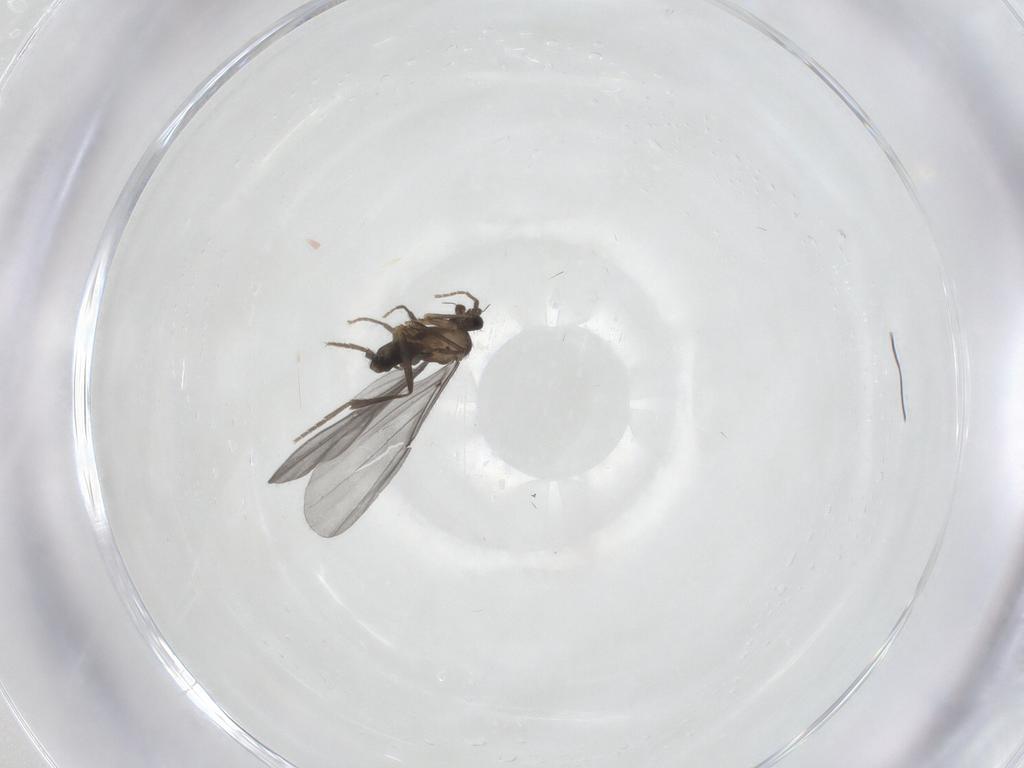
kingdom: Animalia
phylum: Arthropoda
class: Insecta
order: Diptera
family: Phoridae
